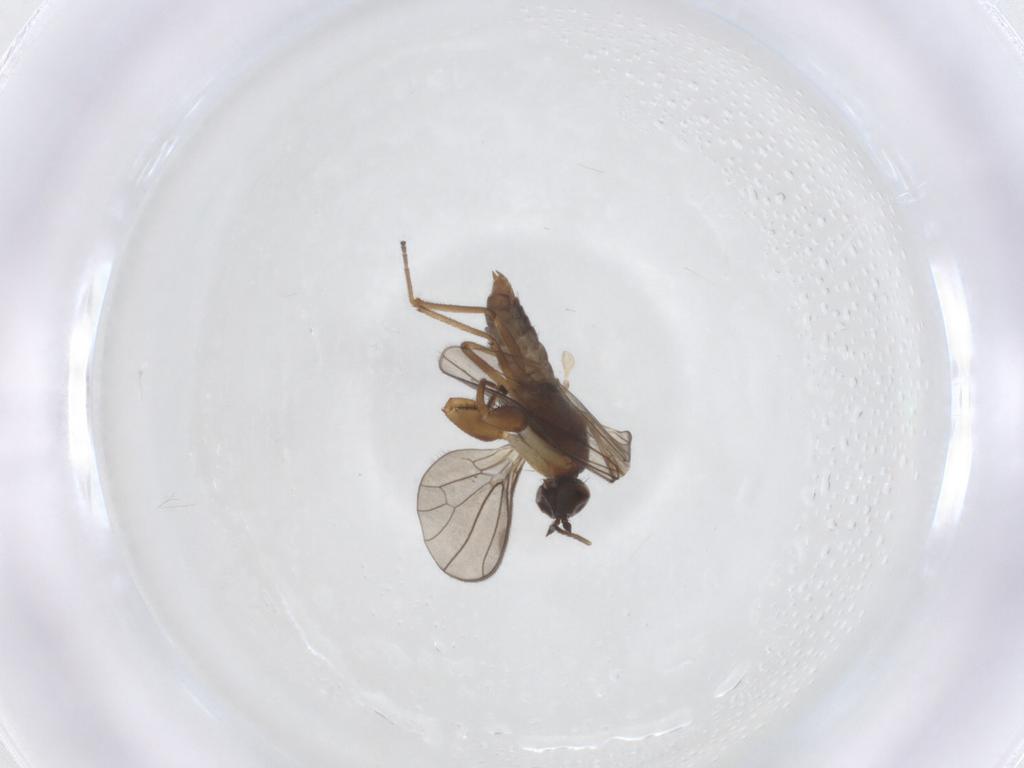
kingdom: Animalia
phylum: Arthropoda
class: Insecta
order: Diptera
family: Empididae
